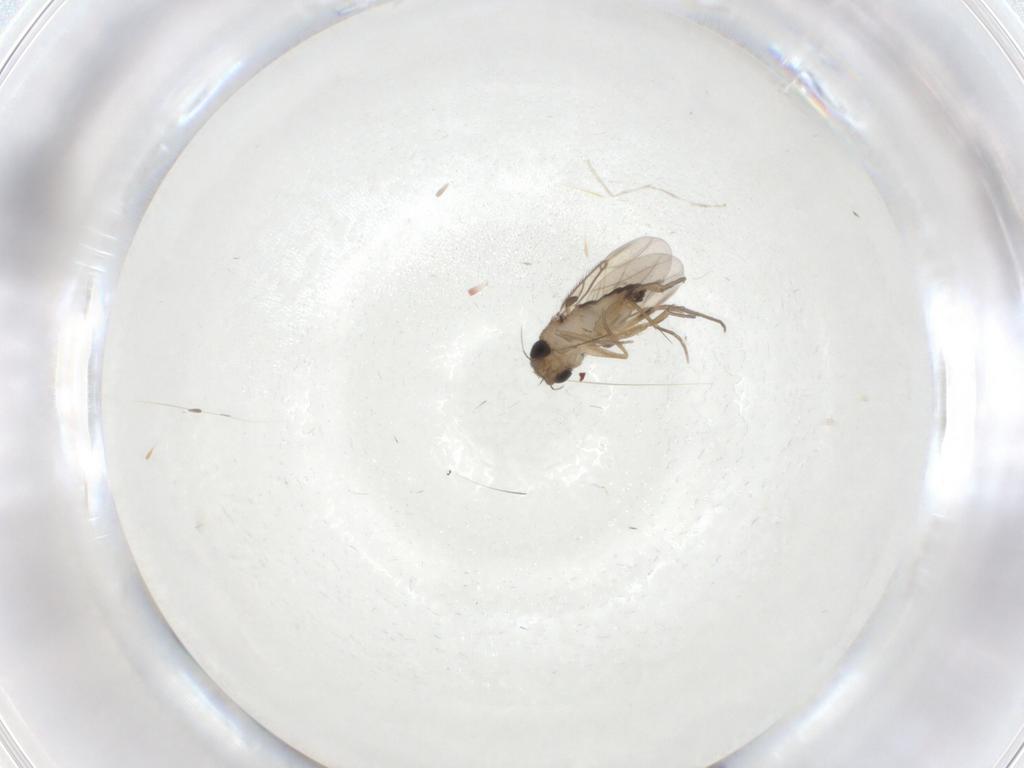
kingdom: Animalia
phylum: Arthropoda
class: Insecta
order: Diptera
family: Phoridae
